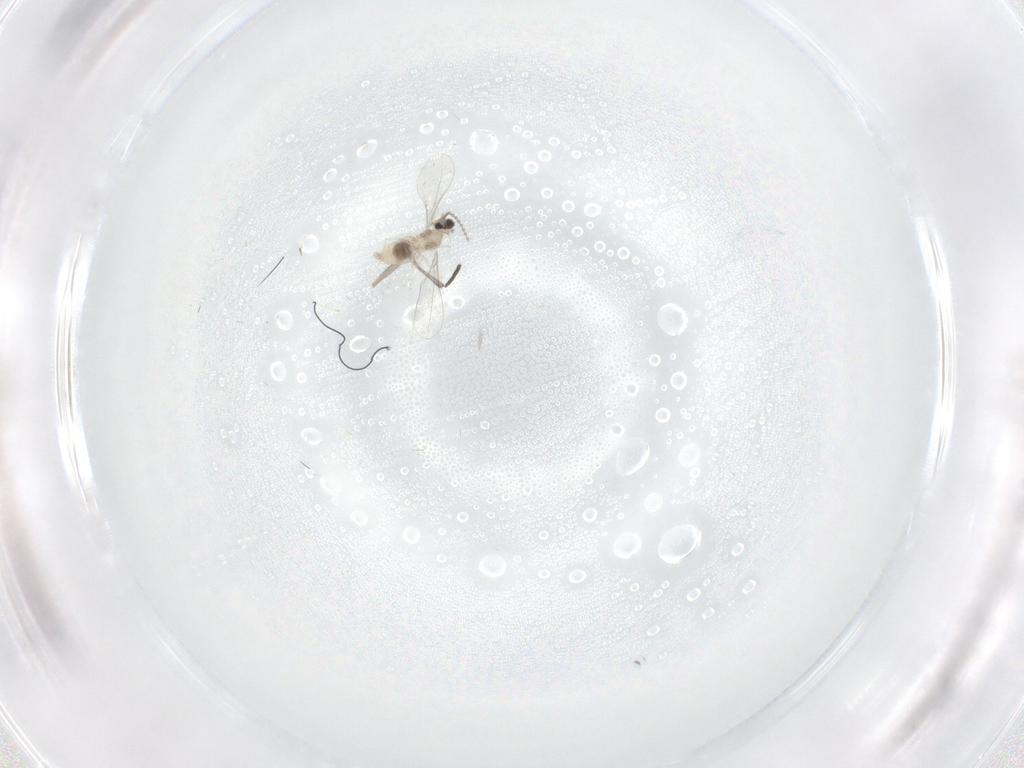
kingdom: Animalia
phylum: Arthropoda
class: Insecta
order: Diptera
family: Cecidomyiidae
